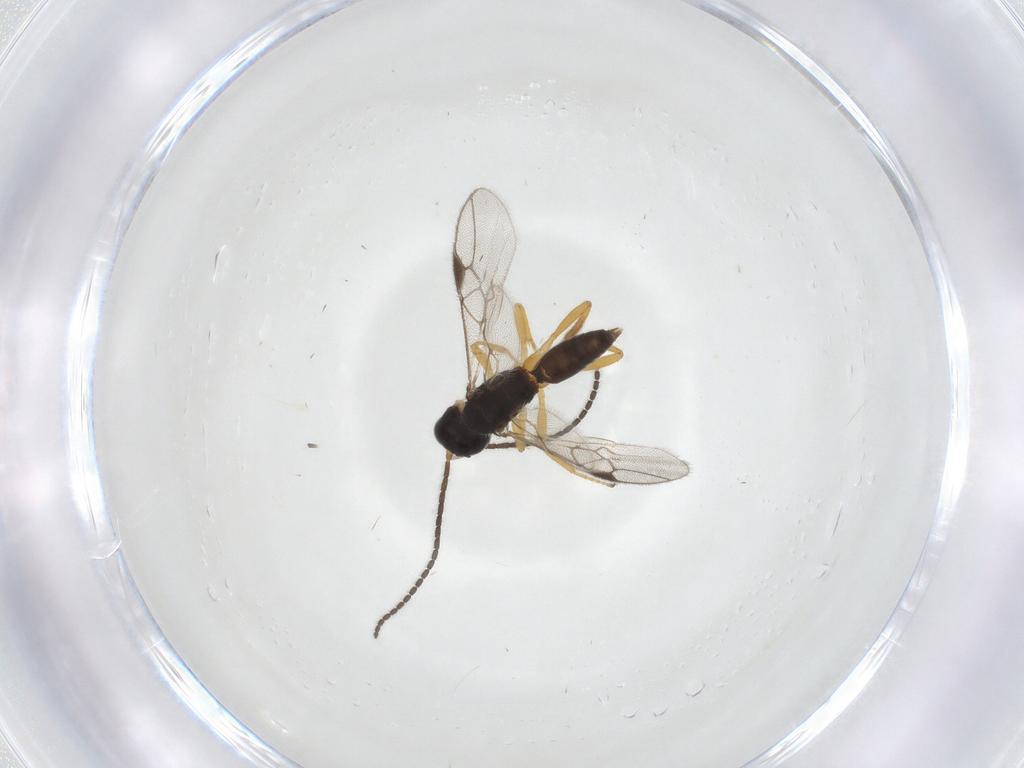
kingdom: Animalia
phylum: Arthropoda
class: Insecta
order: Hymenoptera
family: Braconidae
